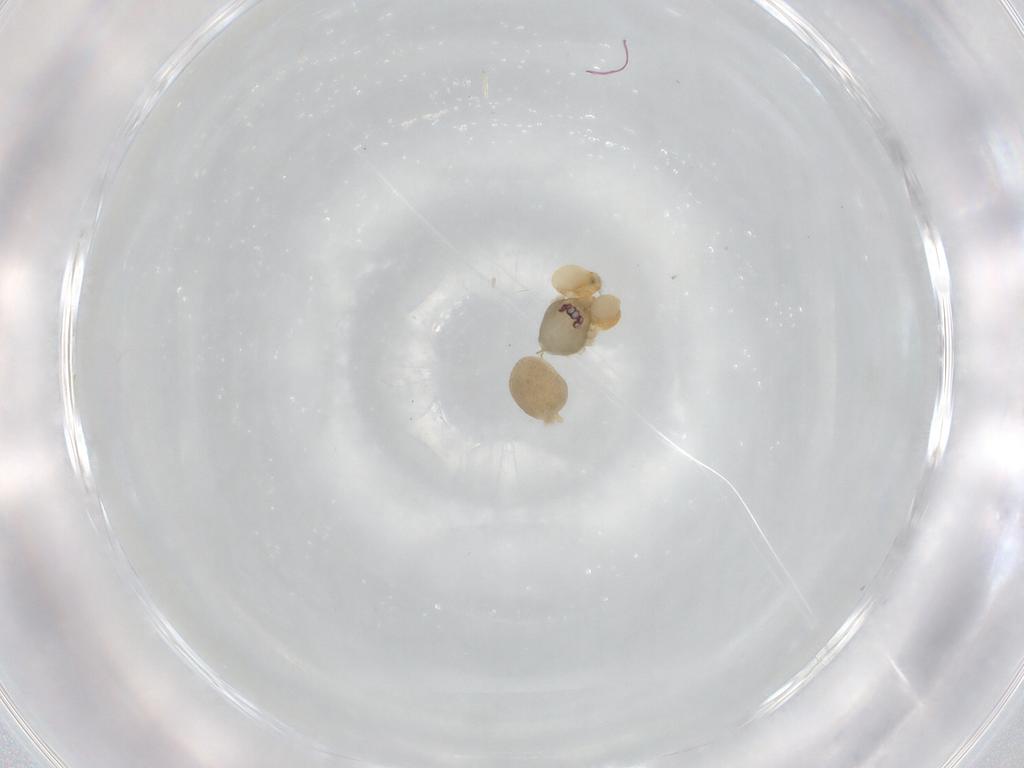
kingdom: Animalia
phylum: Arthropoda
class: Arachnida
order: Araneae
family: Oonopidae
